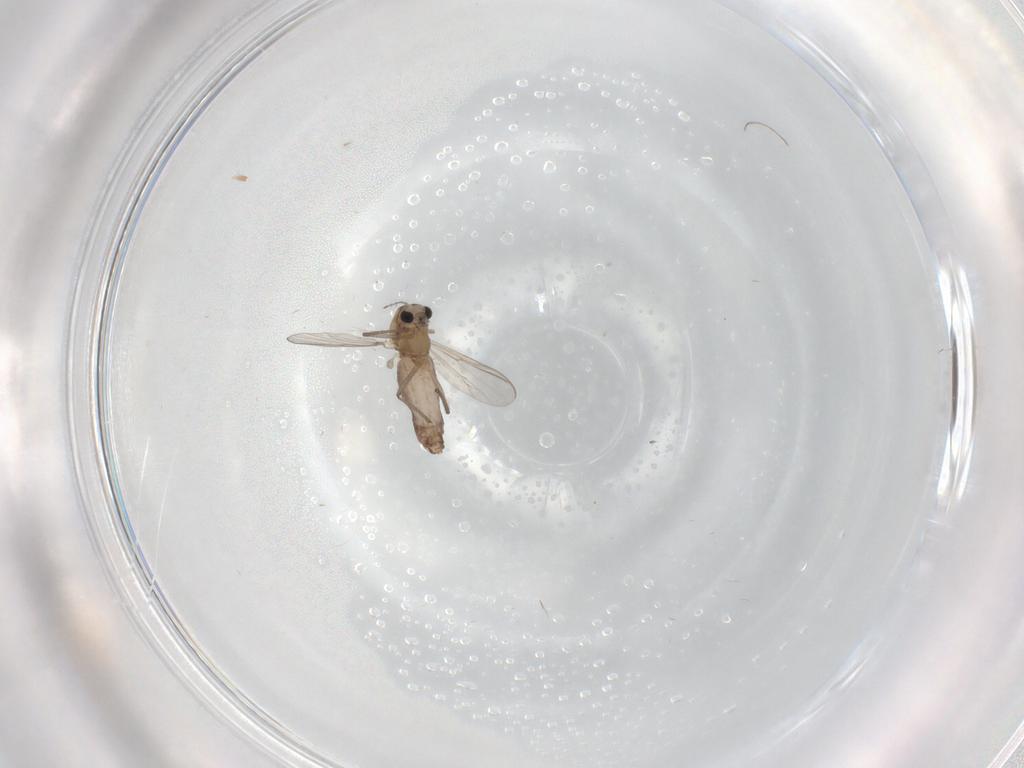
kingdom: Animalia
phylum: Arthropoda
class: Insecta
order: Diptera
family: Chironomidae
